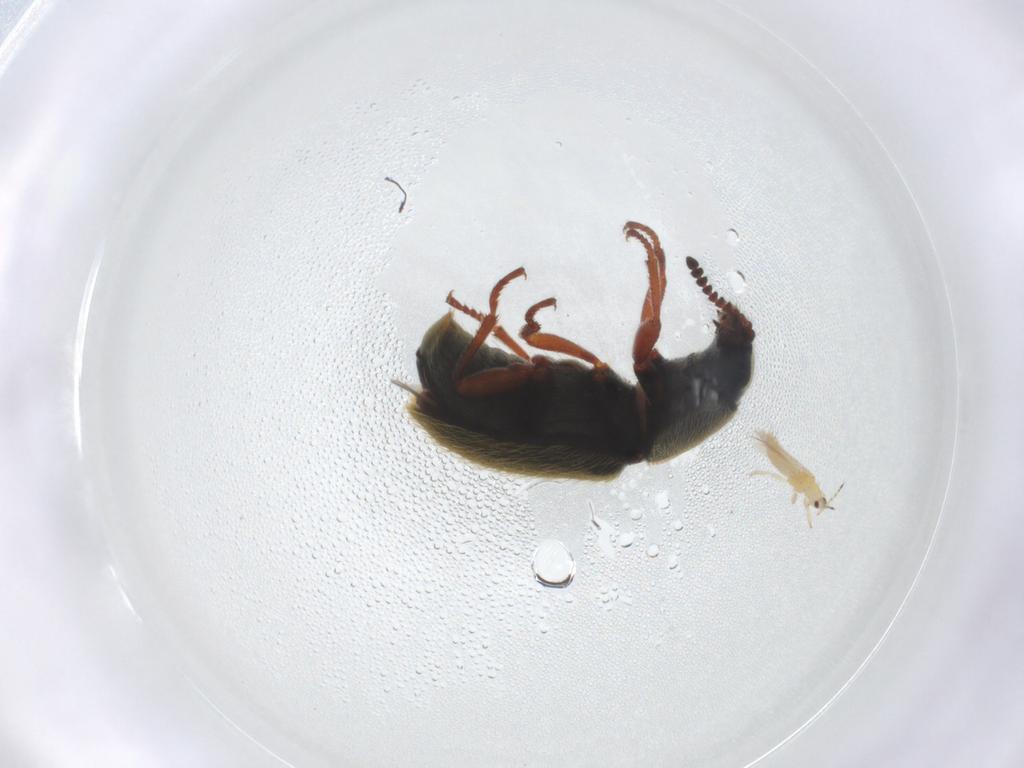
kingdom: Animalia
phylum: Arthropoda
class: Insecta
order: Coleoptera
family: Melyridae
